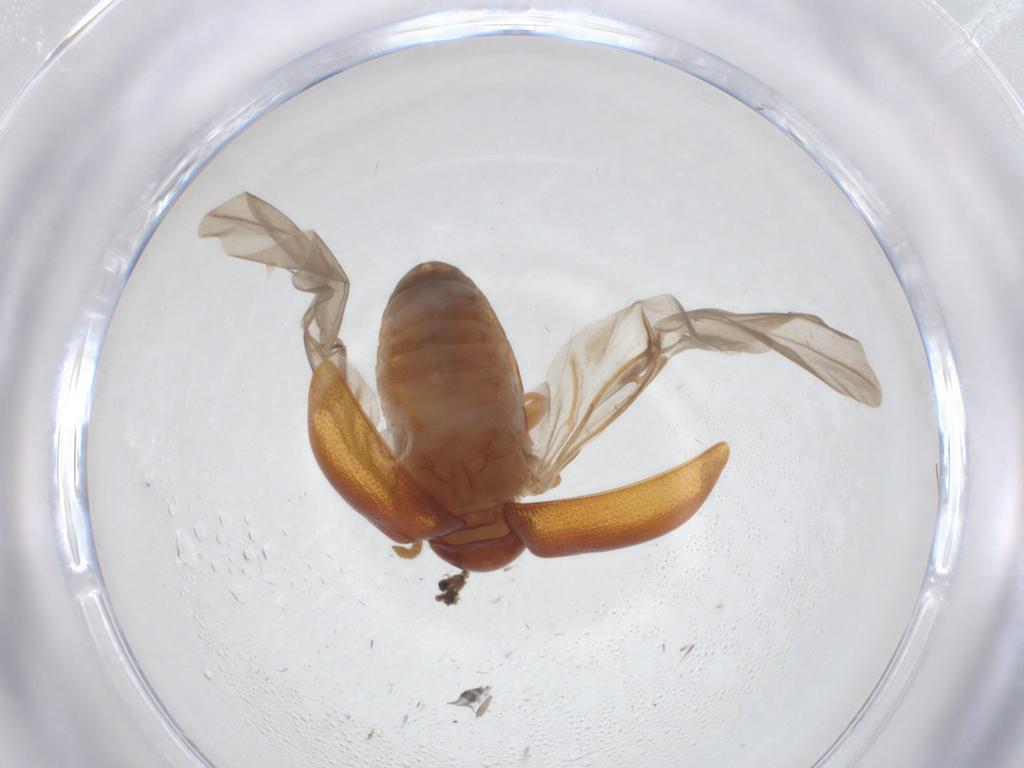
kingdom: Animalia
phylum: Arthropoda
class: Insecta
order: Coleoptera
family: Chrysomelidae
